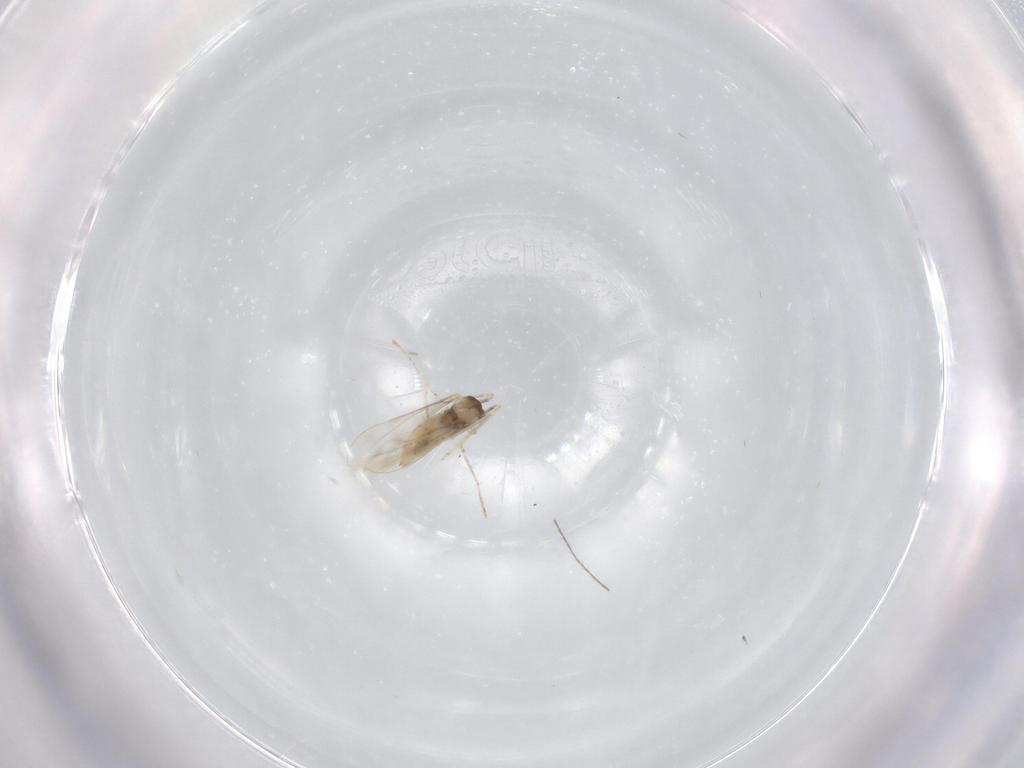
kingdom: Animalia
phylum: Arthropoda
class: Insecta
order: Diptera
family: Cecidomyiidae
